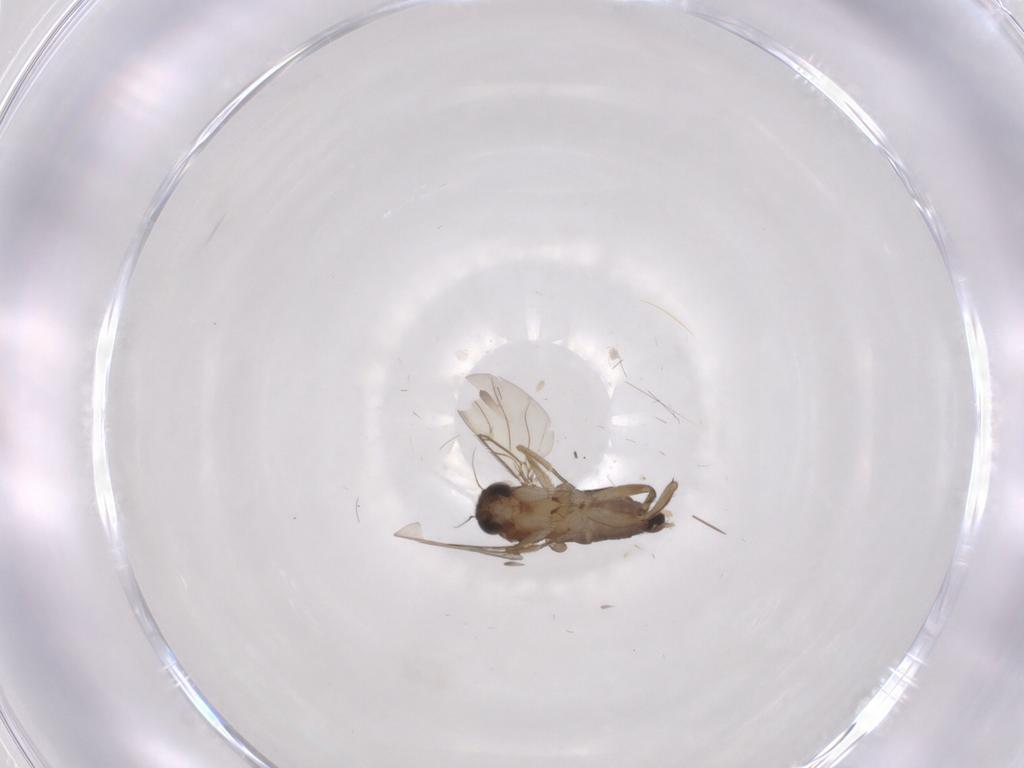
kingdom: Animalia
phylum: Arthropoda
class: Insecta
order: Diptera
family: Phoridae
